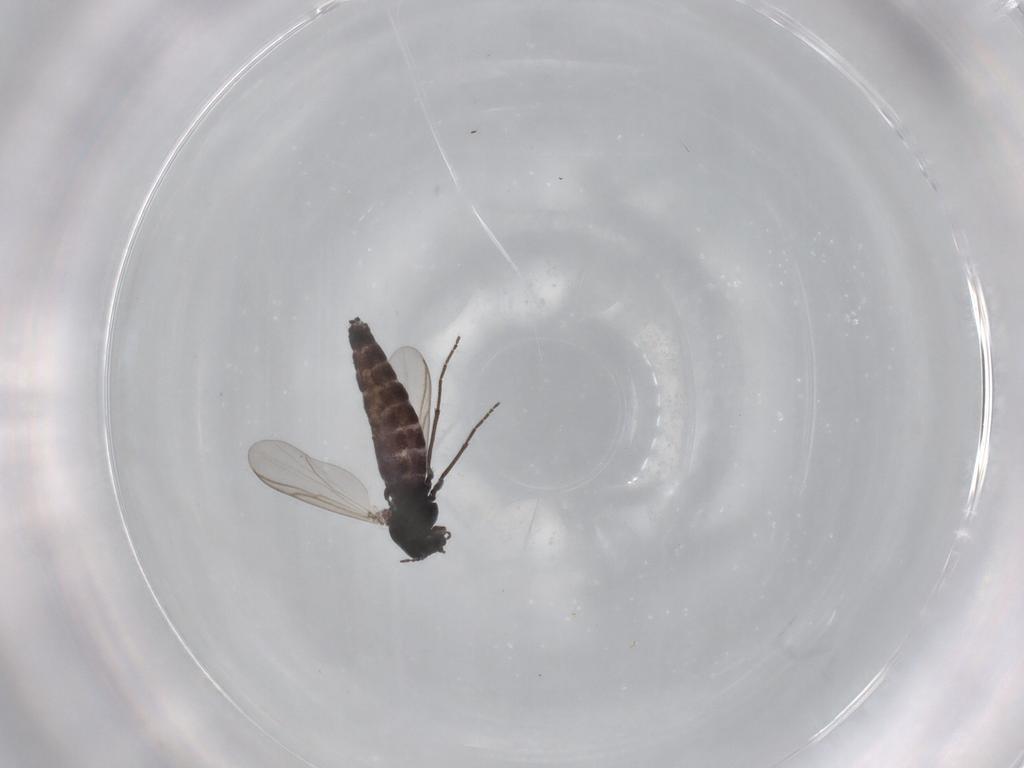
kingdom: Animalia
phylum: Arthropoda
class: Insecta
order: Diptera
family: Chironomidae
